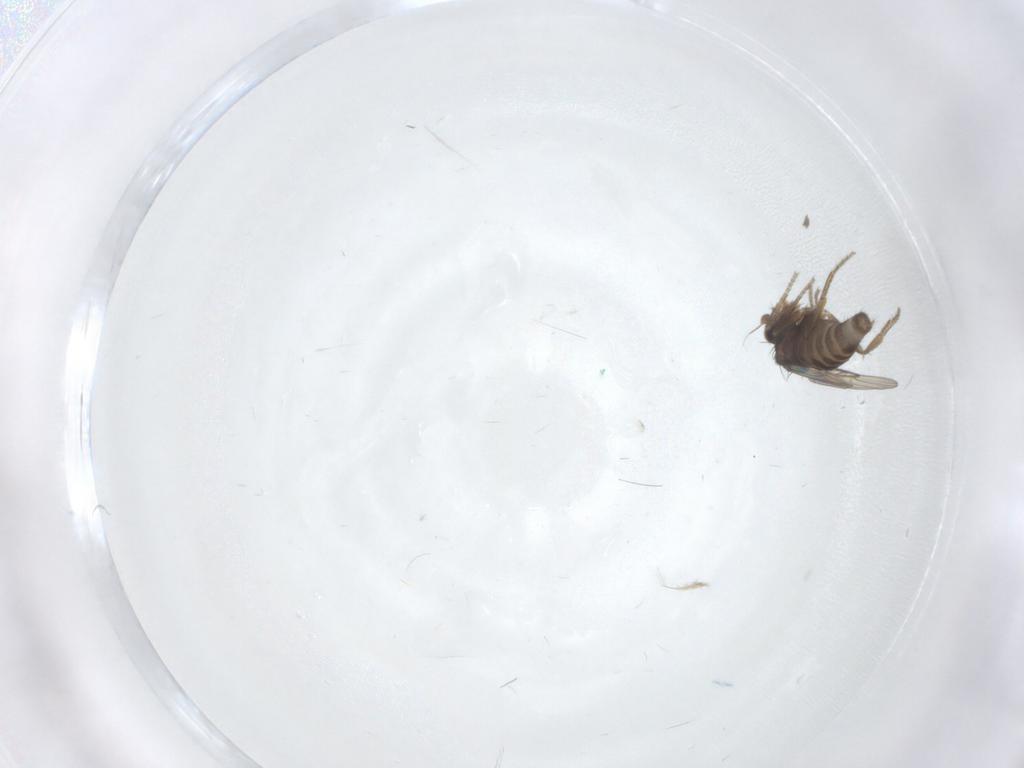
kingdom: Animalia
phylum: Arthropoda
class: Insecta
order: Diptera
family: Phoridae
